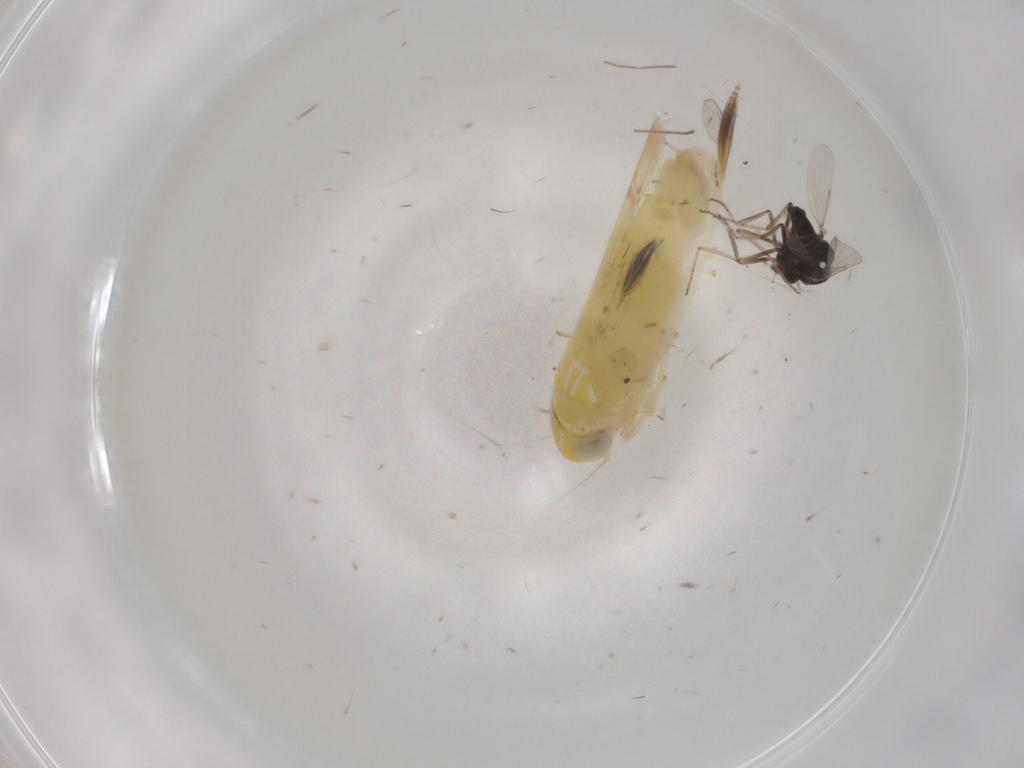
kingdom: Animalia
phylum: Arthropoda
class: Insecta
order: Hemiptera
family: Cicadellidae
